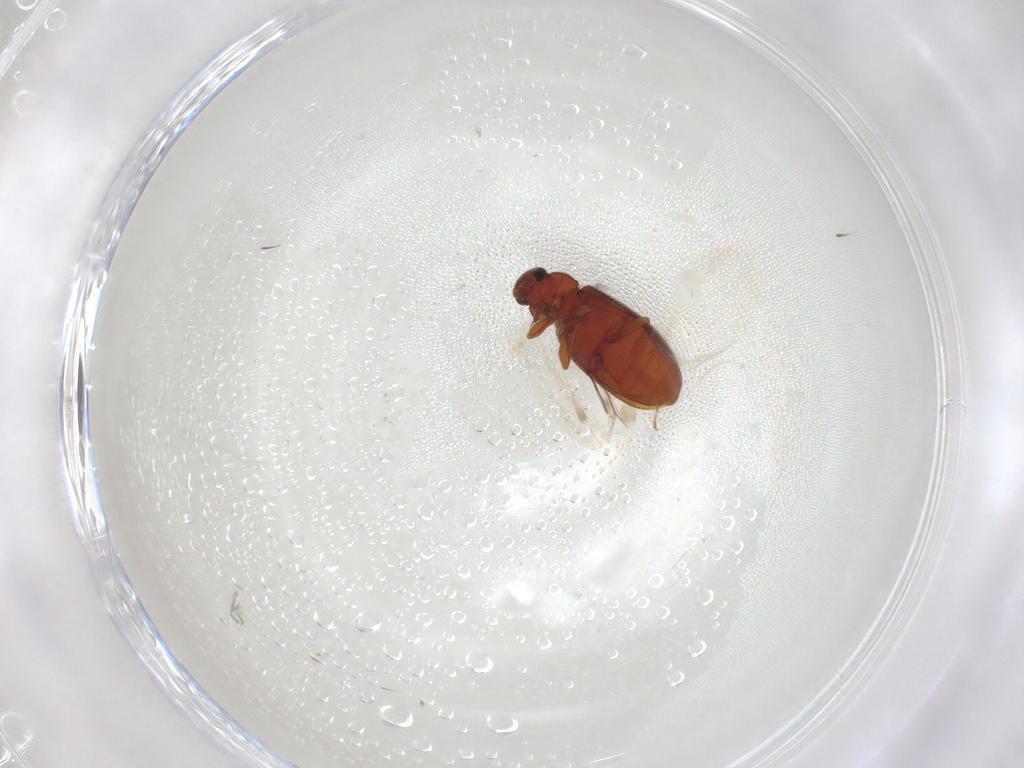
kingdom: Animalia
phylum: Arthropoda
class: Insecta
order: Coleoptera
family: Latridiidae
